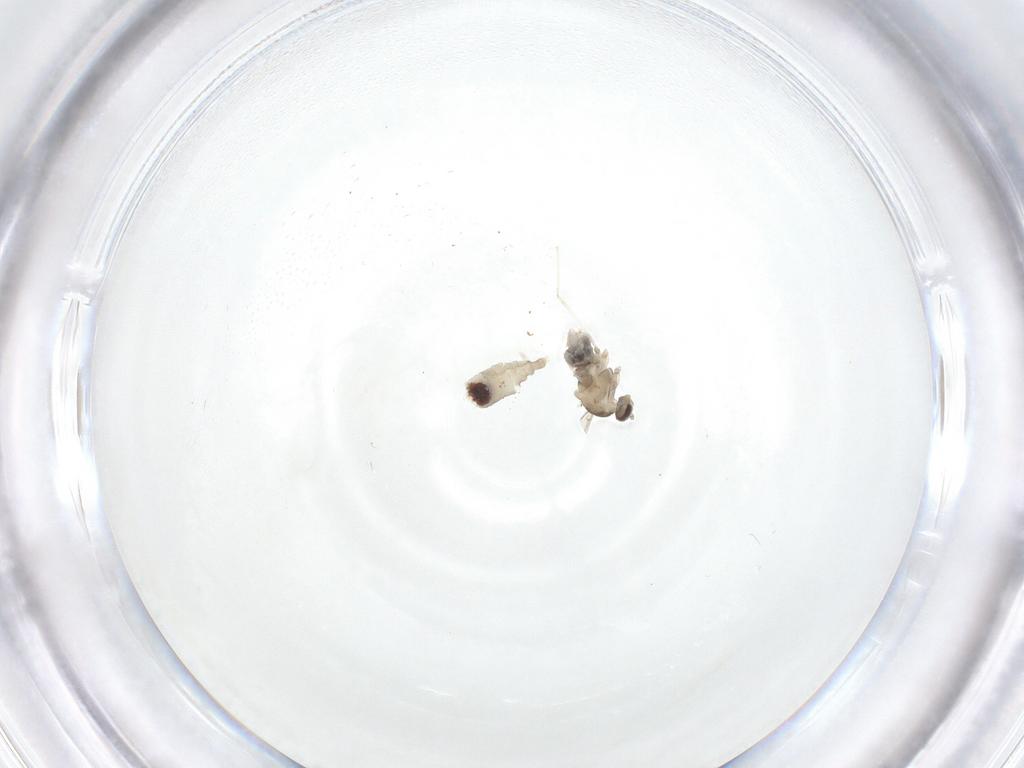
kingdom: Animalia
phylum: Arthropoda
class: Insecta
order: Diptera
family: Cecidomyiidae
